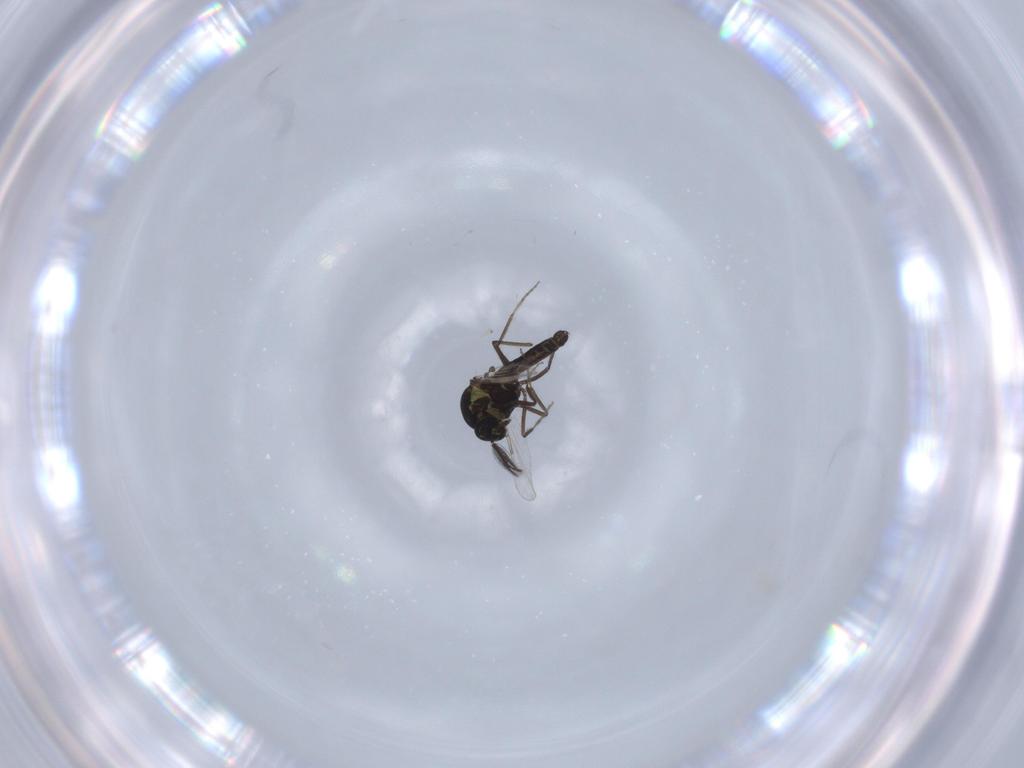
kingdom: Animalia
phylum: Arthropoda
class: Insecta
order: Diptera
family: Ceratopogonidae
